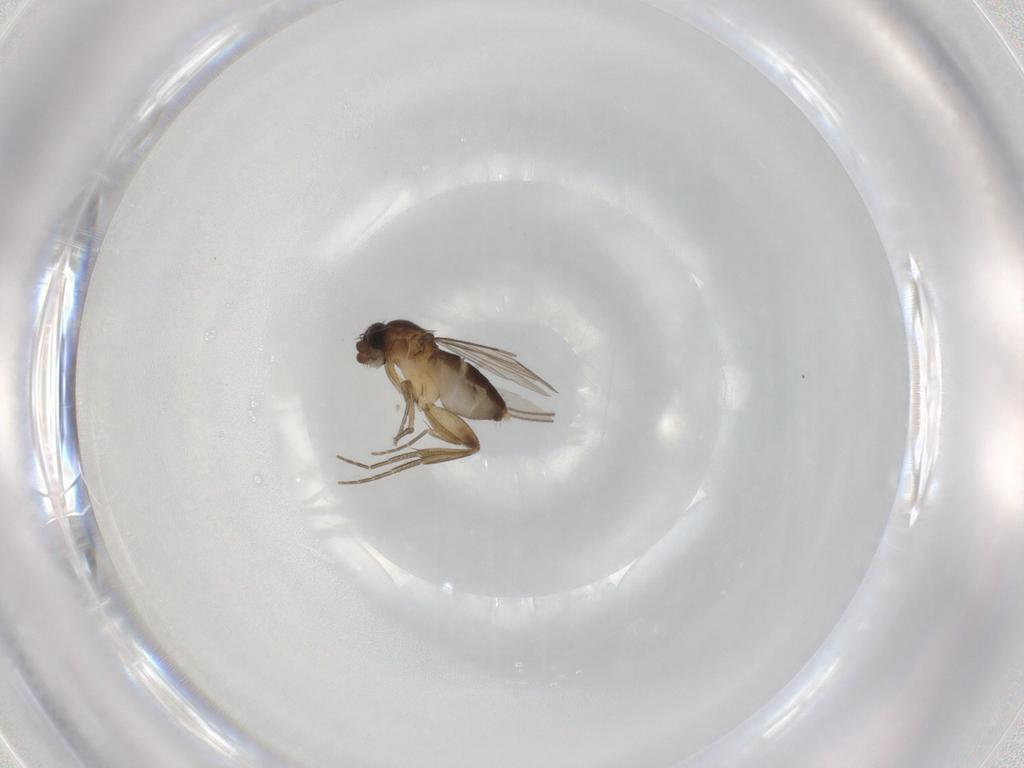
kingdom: Animalia
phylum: Arthropoda
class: Insecta
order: Diptera
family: Phoridae
